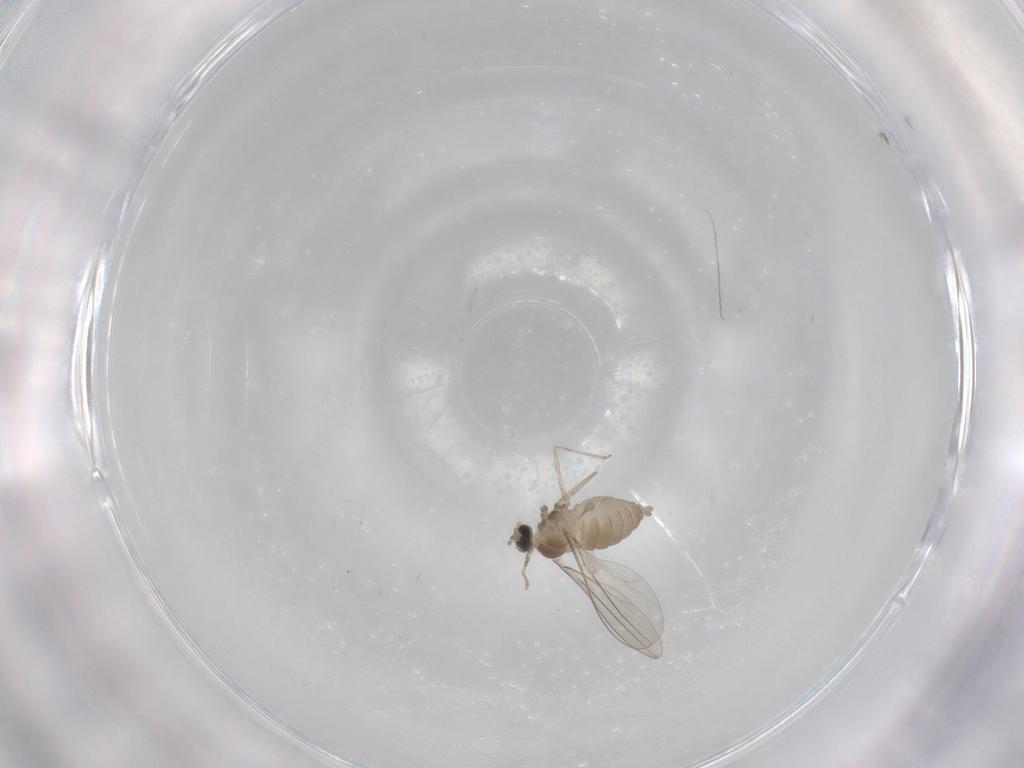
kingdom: Animalia
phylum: Arthropoda
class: Insecta
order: Diptera
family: Cecidomyiidae
